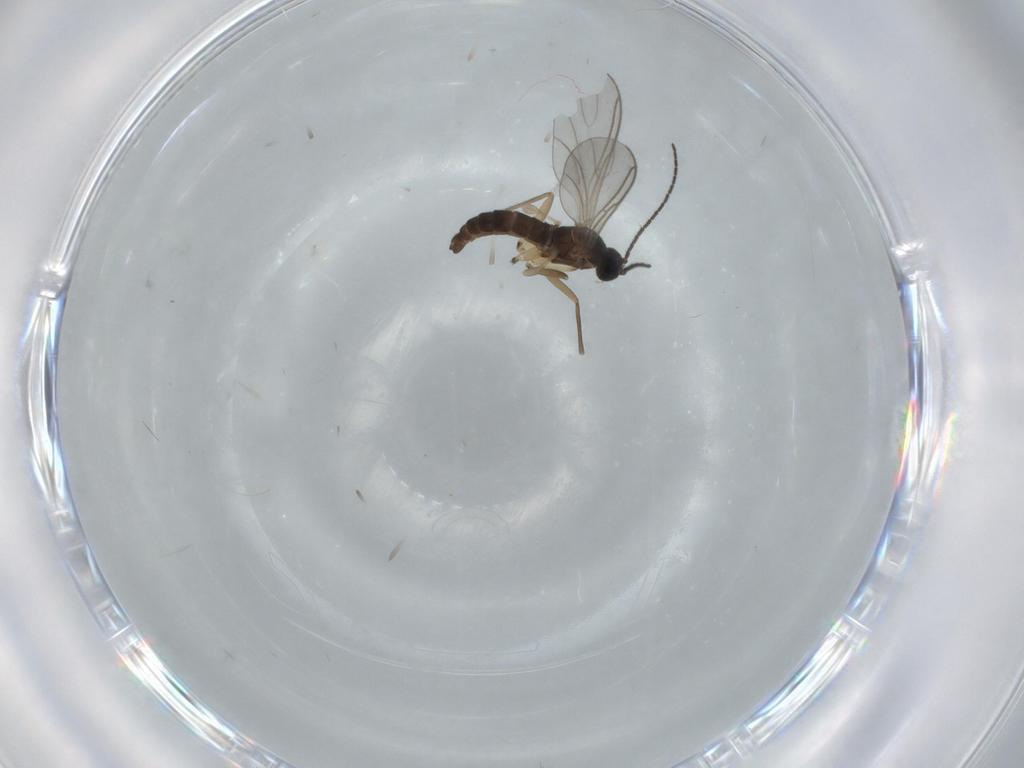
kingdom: Animalia
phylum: Arthropoda
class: Insecta
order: Diptera
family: Sciaridae
